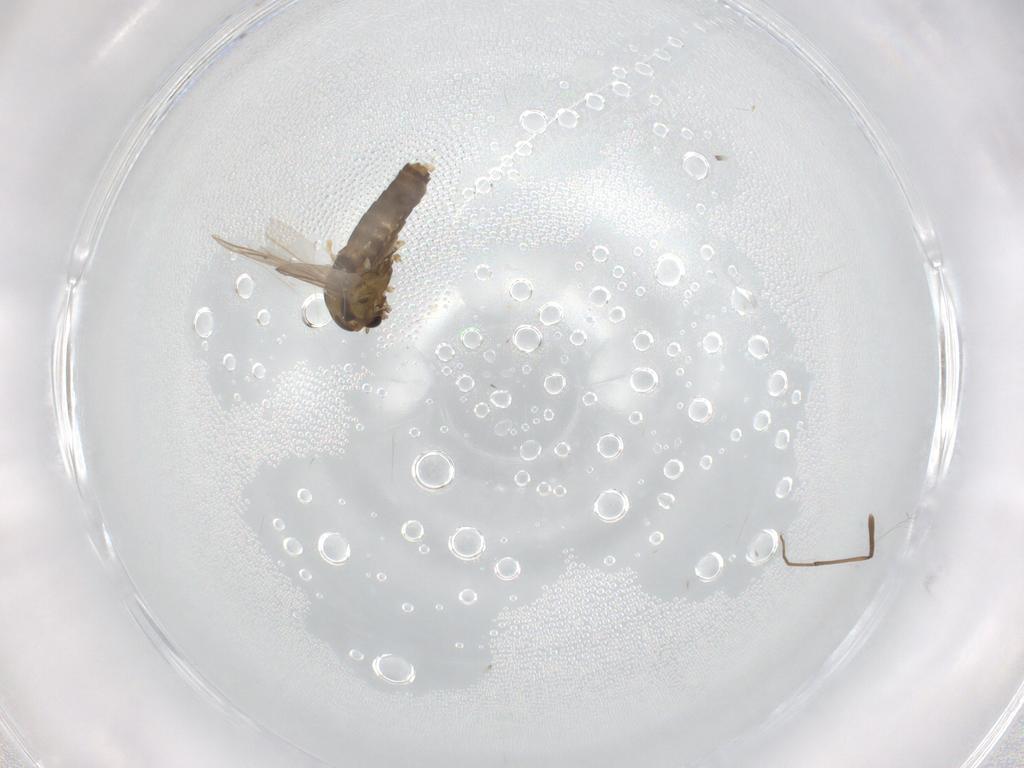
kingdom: Animalia
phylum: Arthropoda
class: Insecta
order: Diptera
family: Chironomidae
